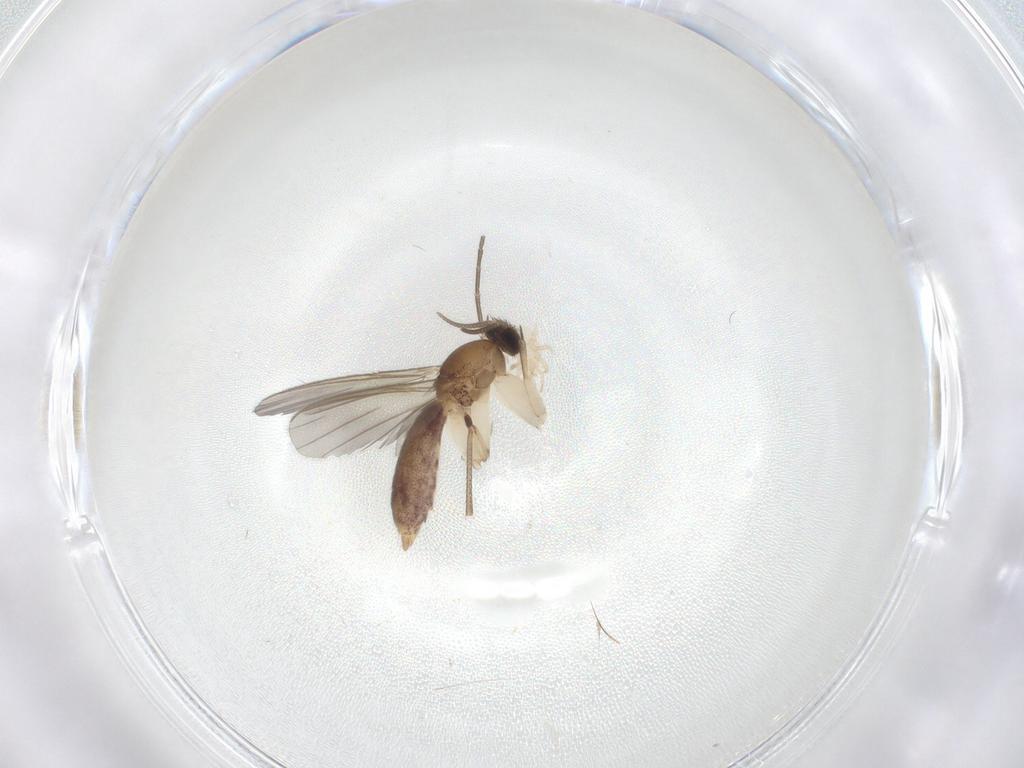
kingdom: Animalia
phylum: Arthropoda
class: Insecta
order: Diptera
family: Mycetophilidae
